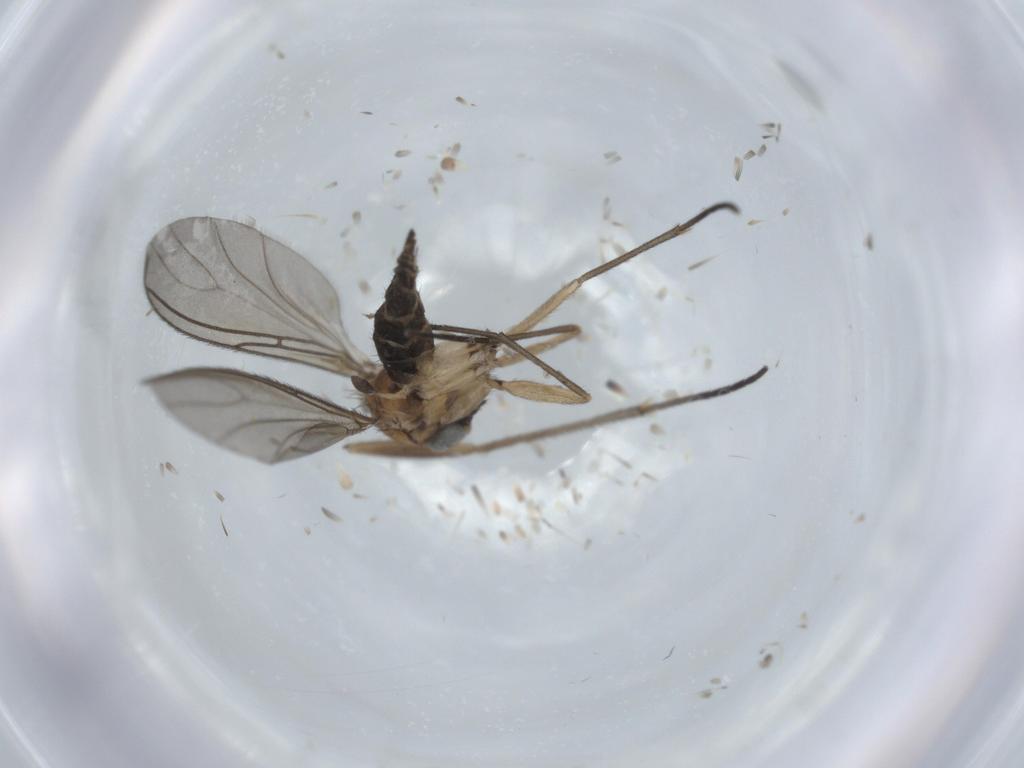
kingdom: Animalia
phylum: Arthropoda
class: Insecta
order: Diptera
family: Sciaridae
